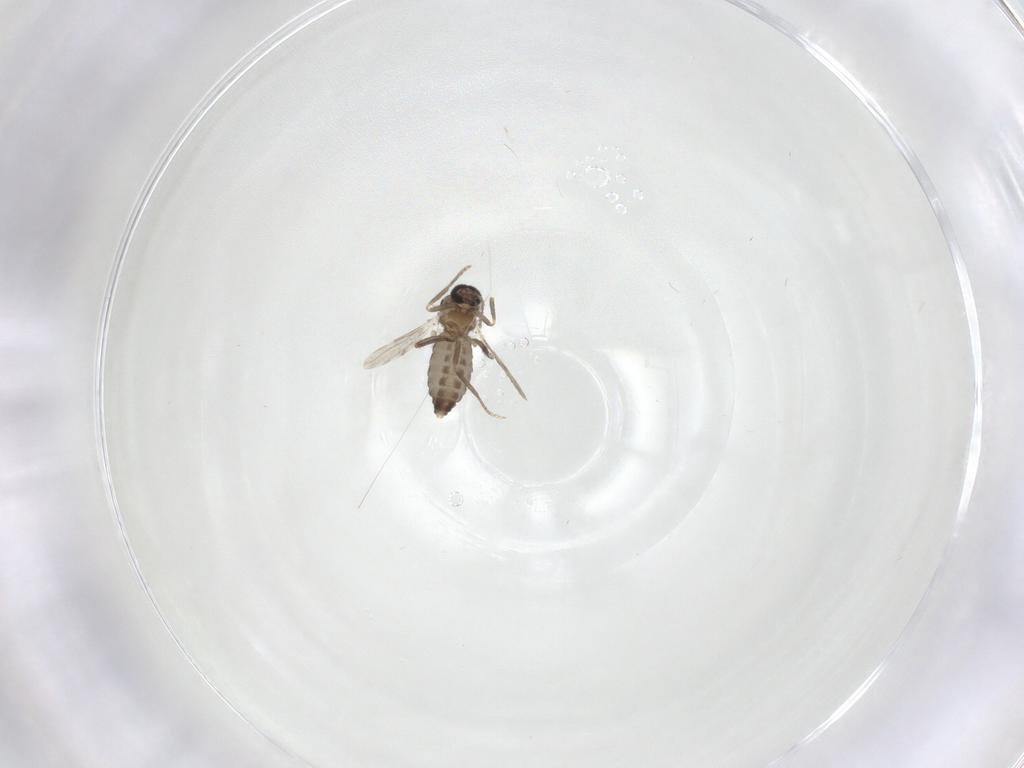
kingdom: Animalia
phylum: Arthropoda
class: Insecta
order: Diptera
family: Ceratopogonidae
